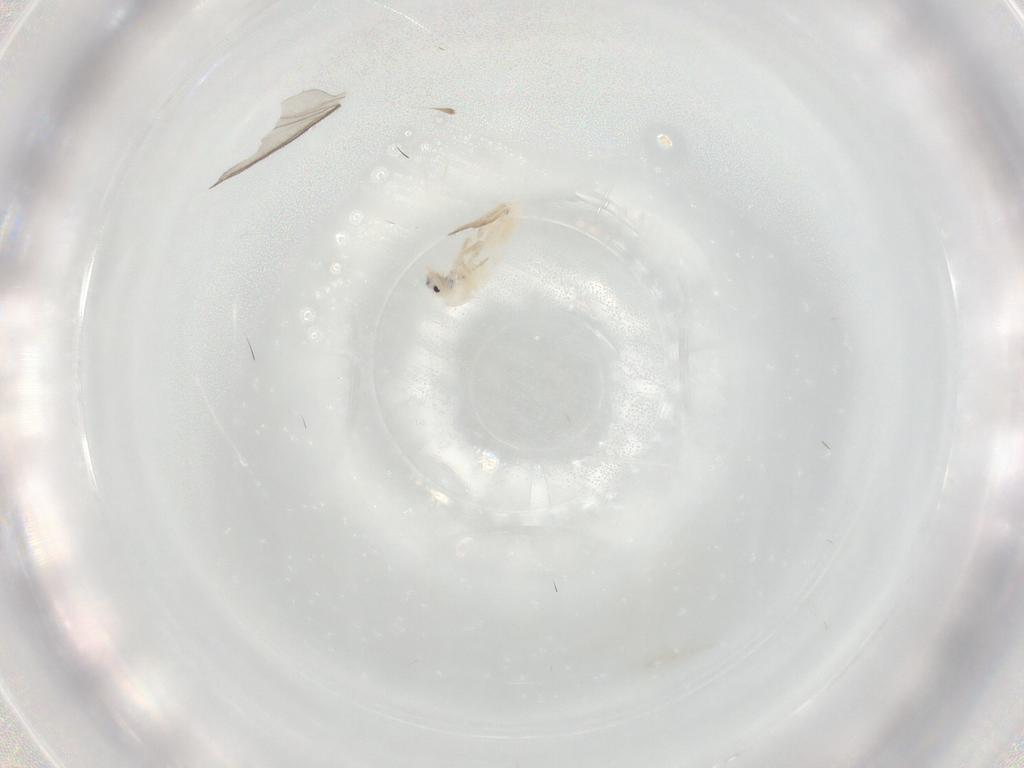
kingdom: Animalia
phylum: Arthropoda
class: Collembola
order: Entomobryomorpha
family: Entomobryidae
